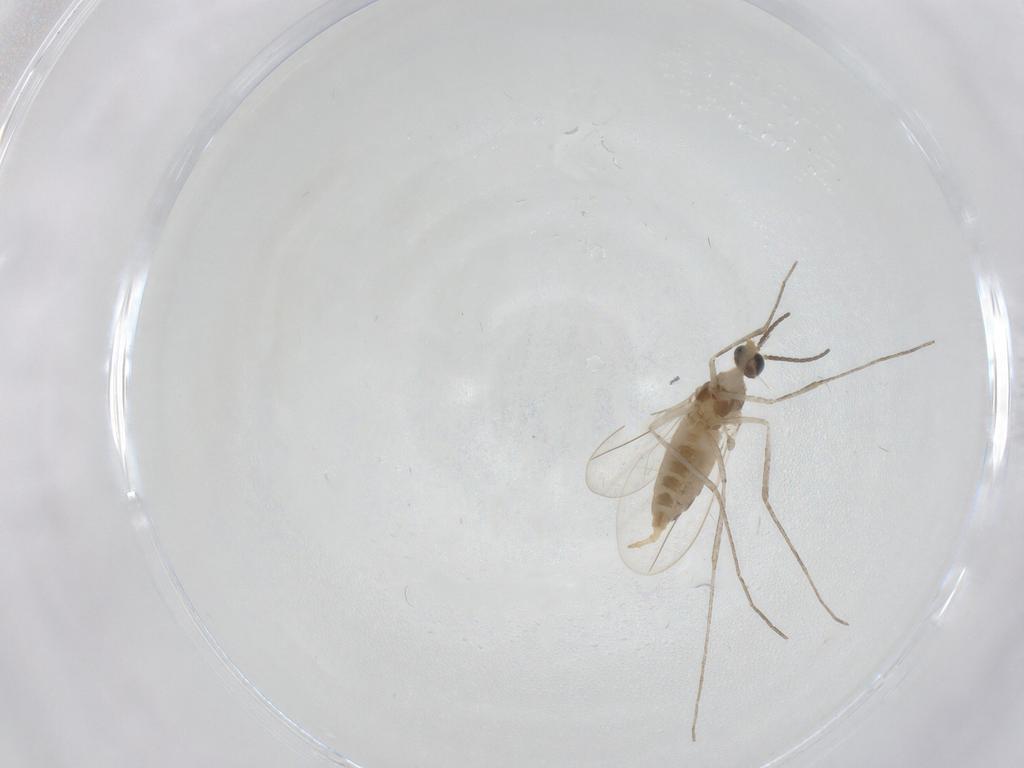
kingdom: Animalia
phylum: Arthropoda
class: Insecta
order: Diptera
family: Cecidomyiidae
